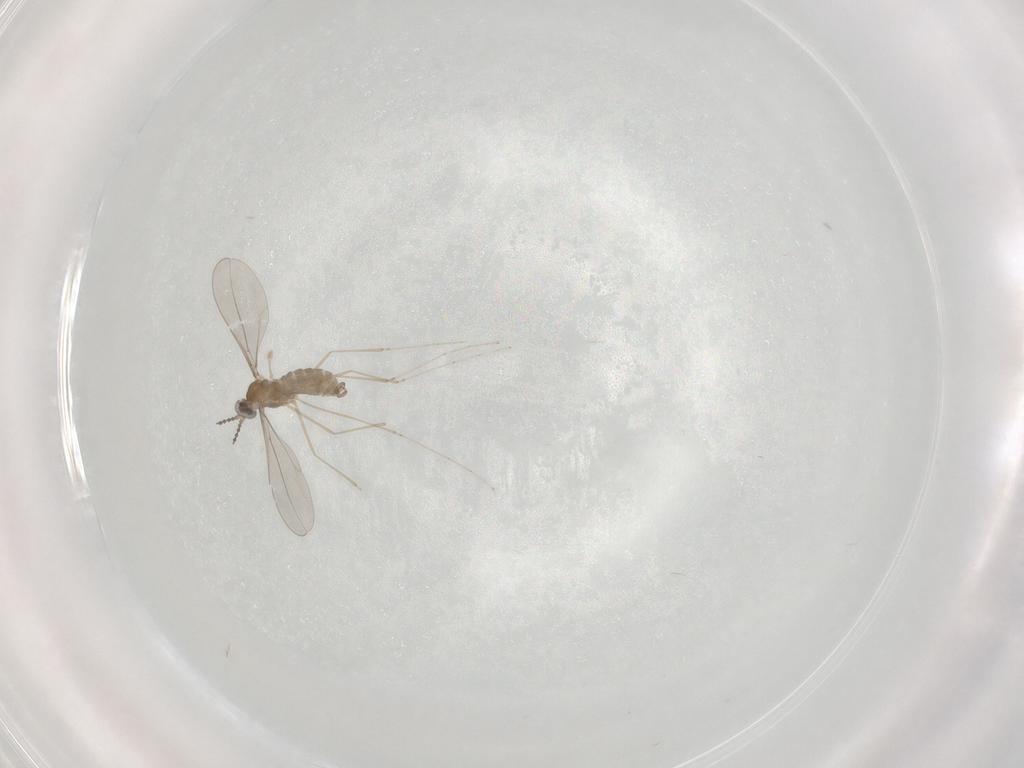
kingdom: Animalia
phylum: Arthropoda
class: Insecta
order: Diptera
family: Cecidomyiidae
